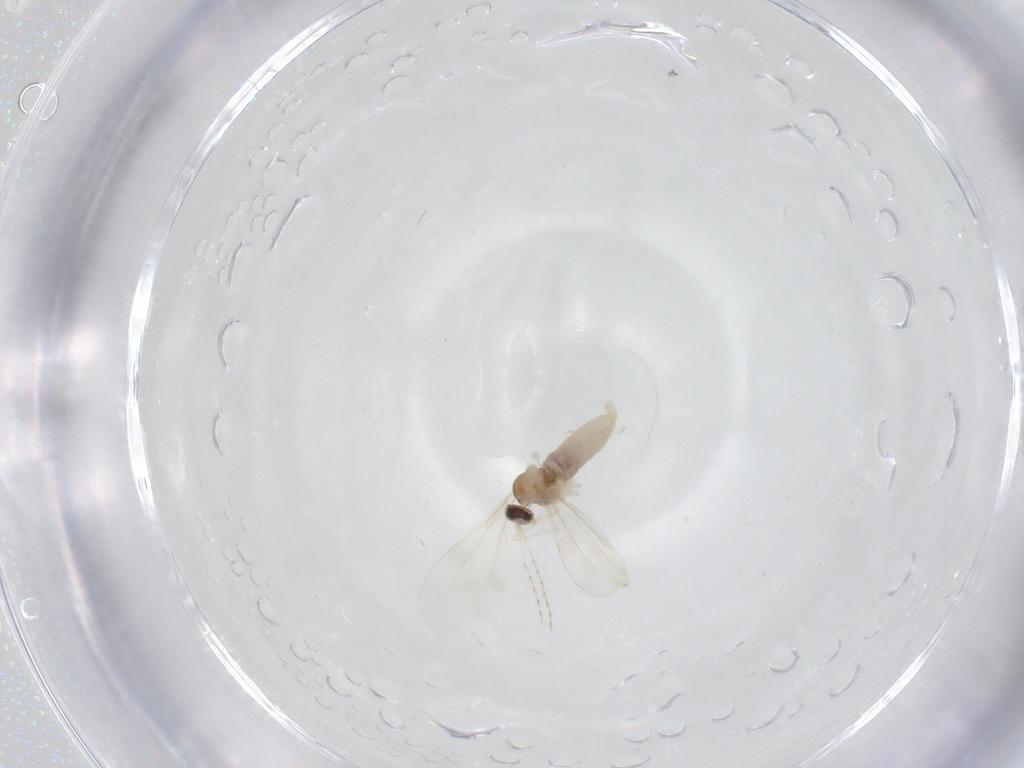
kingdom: Animalia
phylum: Arthropoda
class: Insecta
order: Diptera
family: Cecidomyiidae
